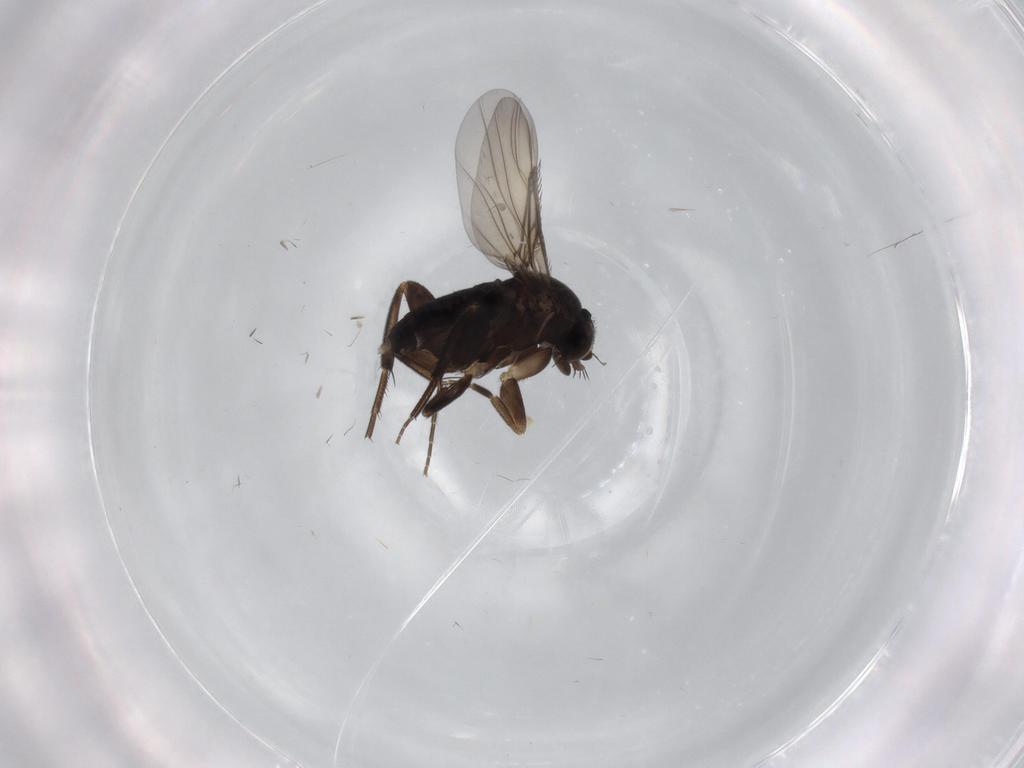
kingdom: Animalia
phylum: Arthropoda
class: Insecta
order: Diptera
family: Phoridae
